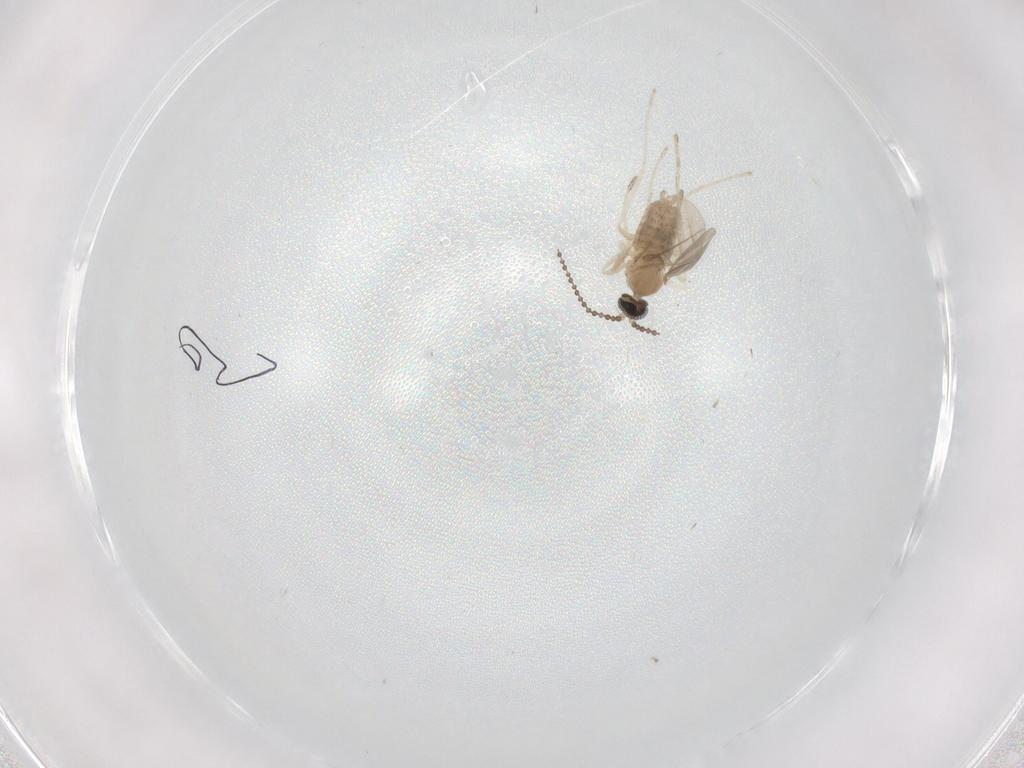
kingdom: Animalia
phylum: Arthropoda
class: Insecta
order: Diptera
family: Cecidomyiidae
